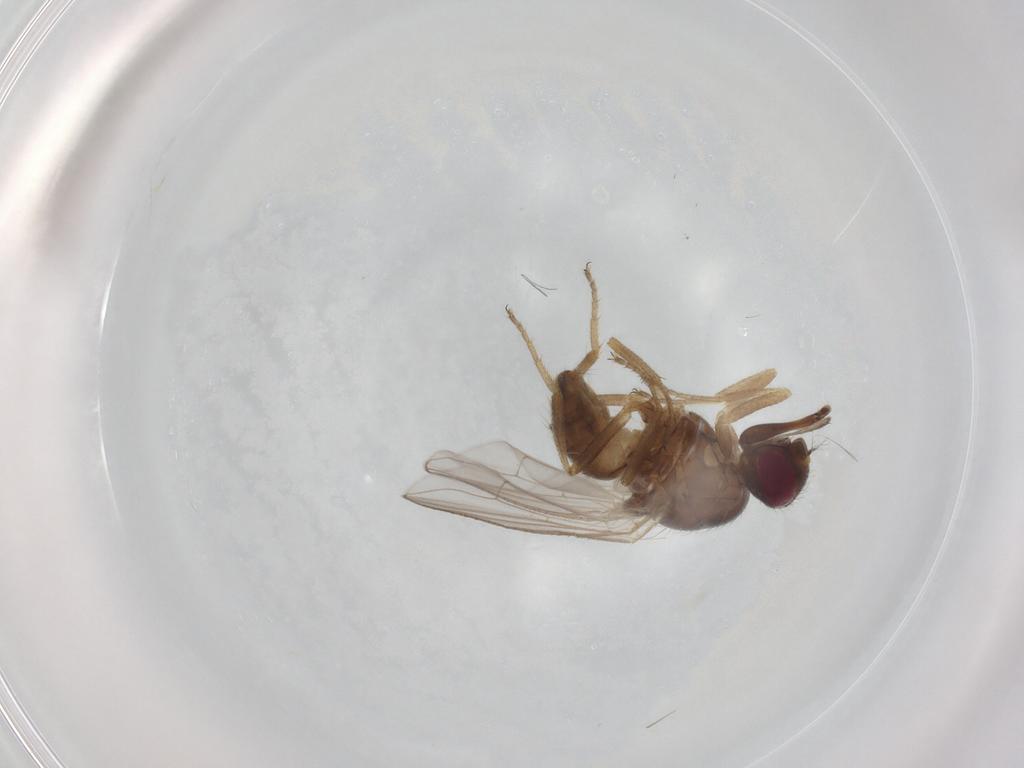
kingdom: Animalia
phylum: Arthropoda
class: Insecta
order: Diptera
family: Muscidae
